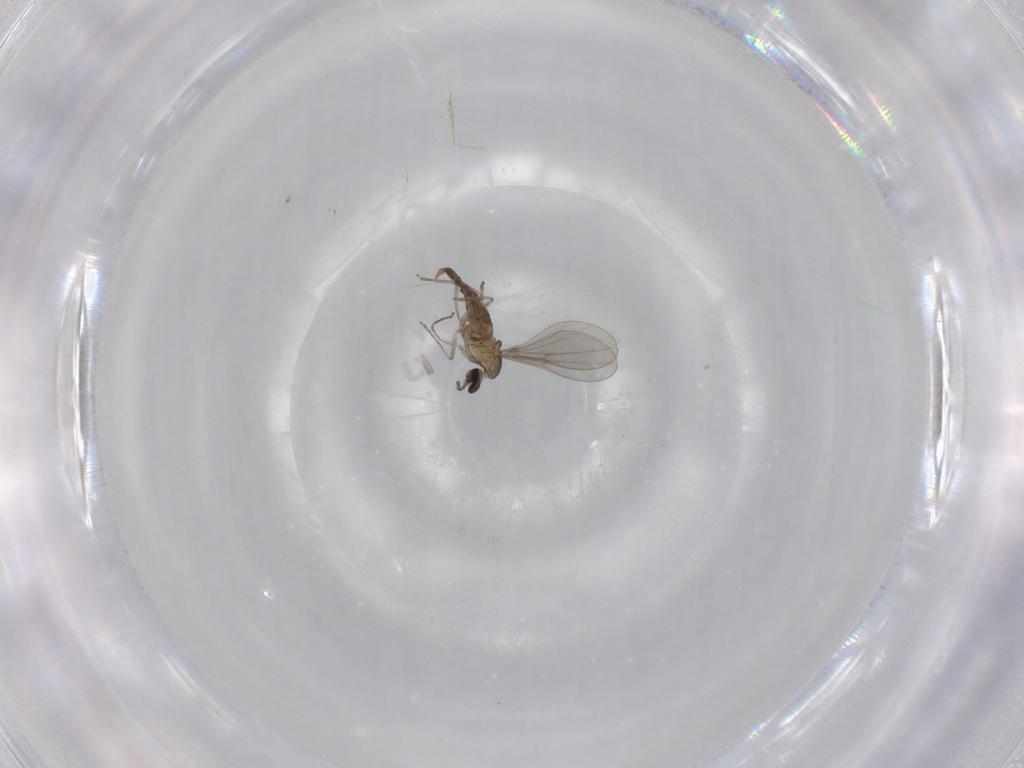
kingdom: Animalia
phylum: Arthropoda
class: Insecta
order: Diptera
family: Cecidomyiidae
